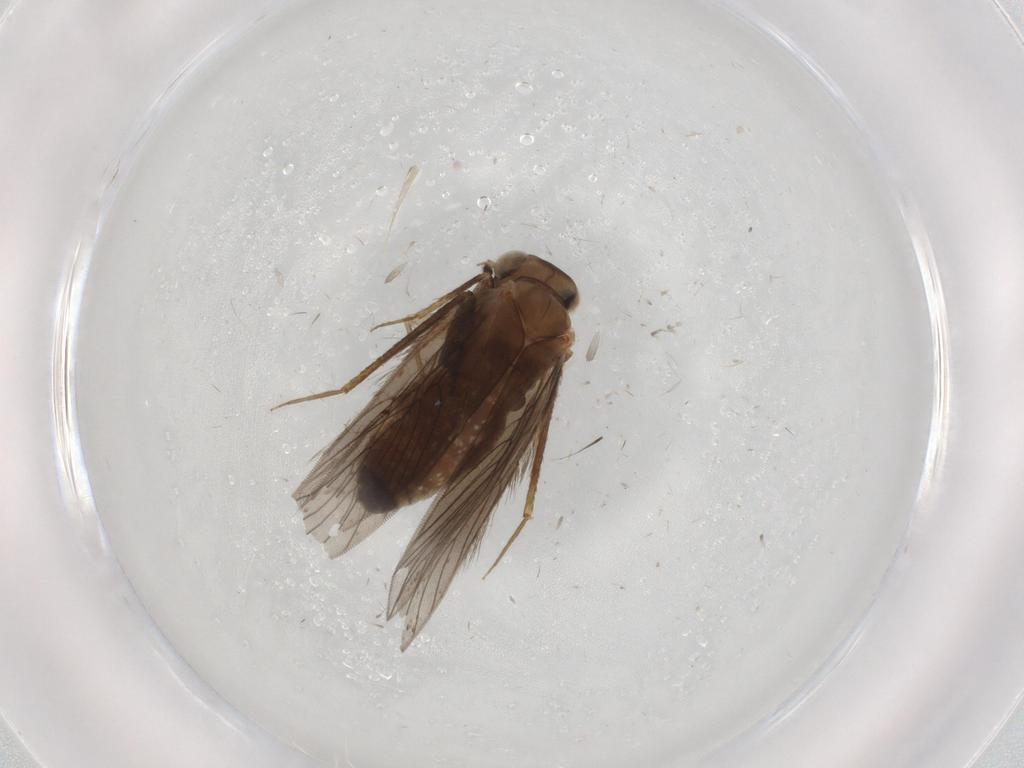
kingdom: Animalia
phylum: Arthropoda
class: Insecta
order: Psocodea
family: Lepidopsocidae
